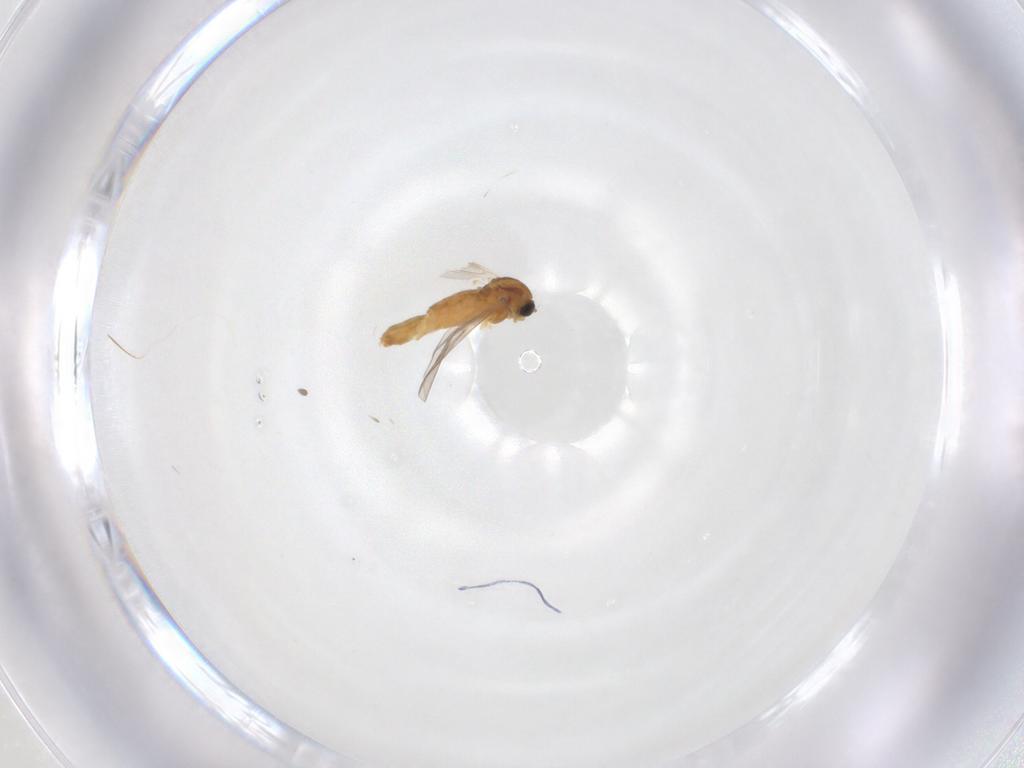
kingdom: Animalia
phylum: Arthropoda
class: Insecta
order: Diptera
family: Chironomidae
